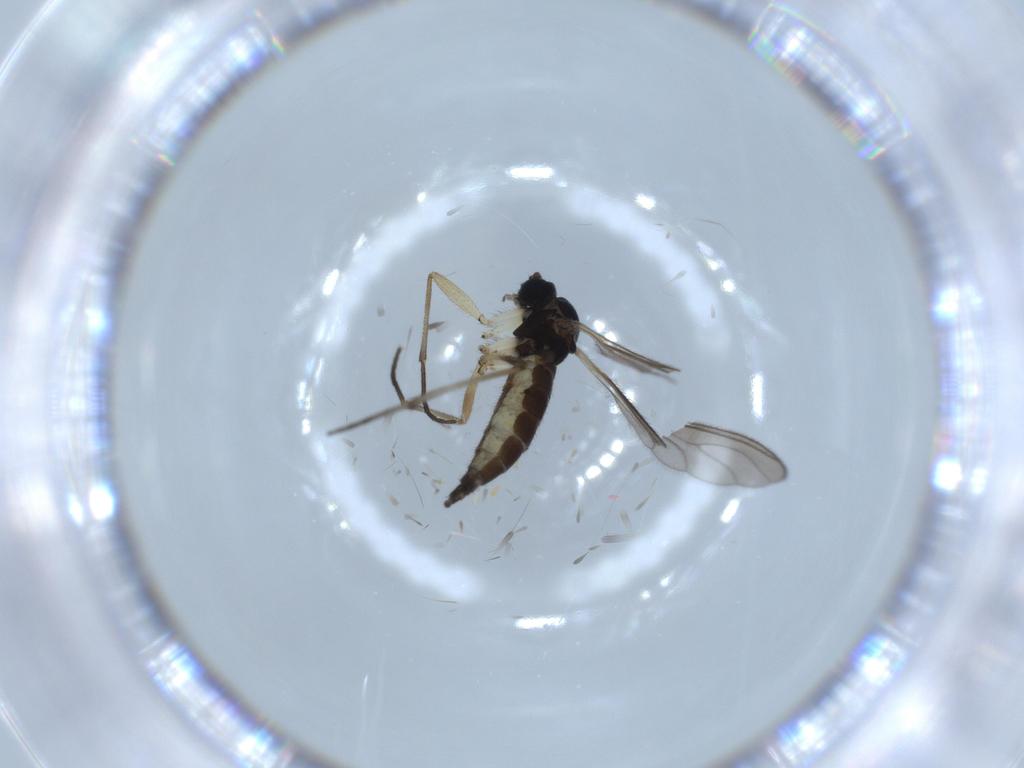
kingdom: Animalia
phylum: Arthropoda
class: Insecta
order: Diptera
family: Sciaridae
